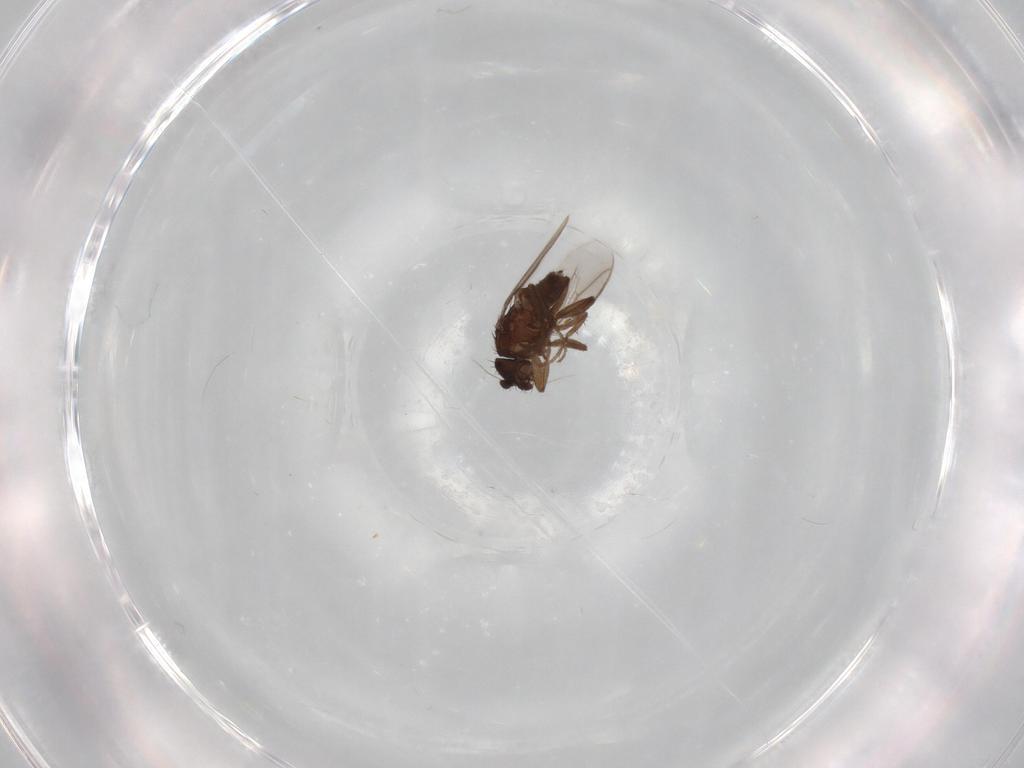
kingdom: Animalia
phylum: Arthropoda
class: Insecta
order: Diptera
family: Sphaeroceridae
